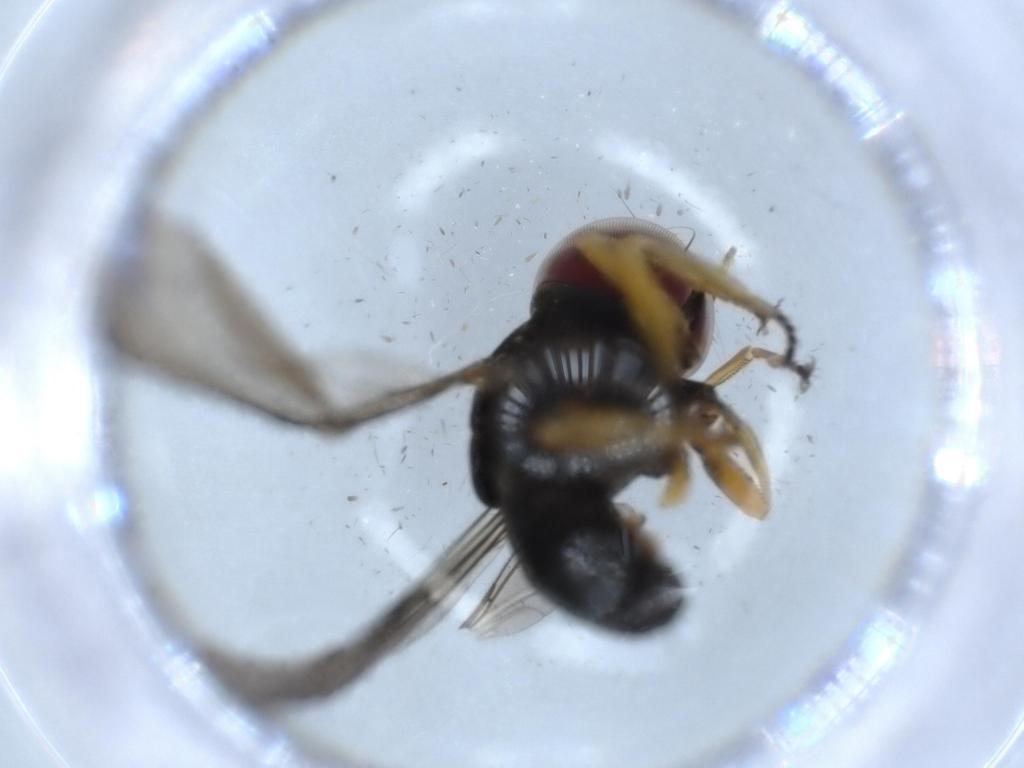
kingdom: Animalia
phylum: Arthropoda
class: Insecta
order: Diptera
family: Sciaridae
